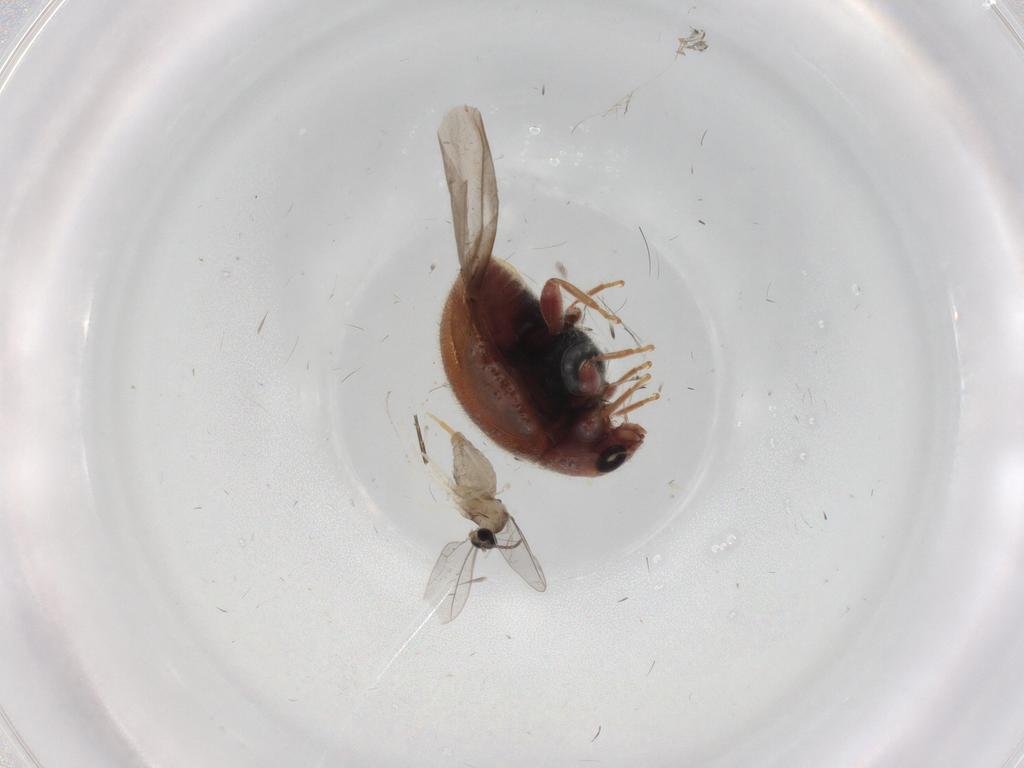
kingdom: Animalia
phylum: Arthropoda
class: Insecta
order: Diptera
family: Cecidomyiidae
